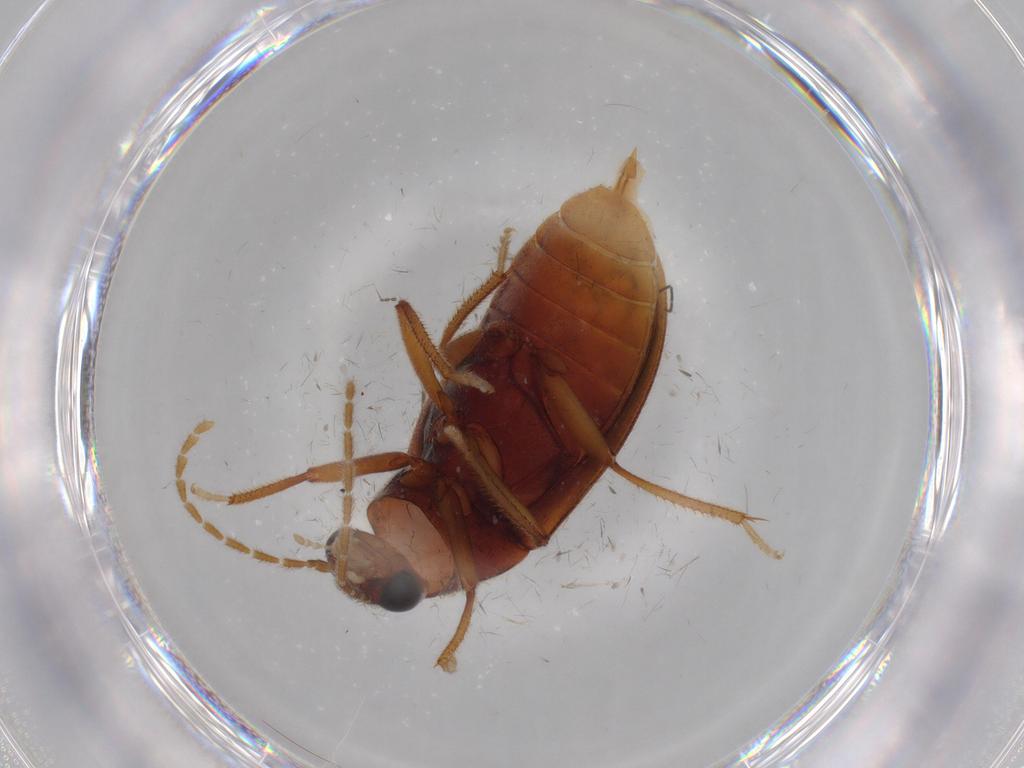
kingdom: Animalia
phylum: Arthropoda
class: Insecta
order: Coleoptera
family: Ptilodactylidae
